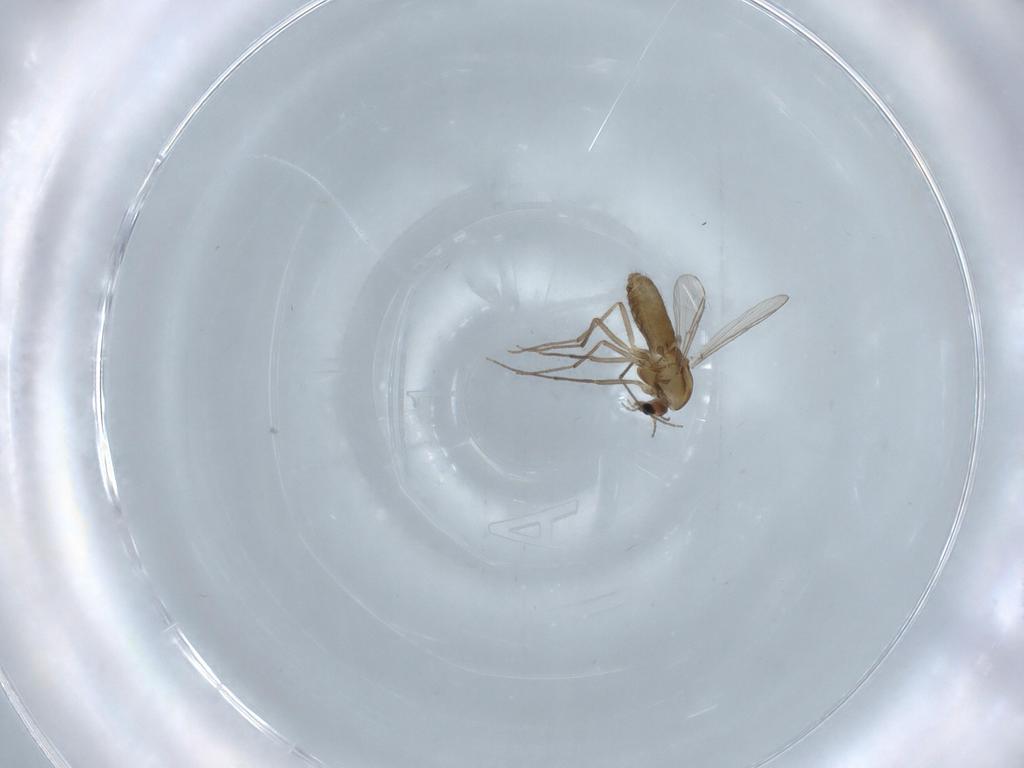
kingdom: Animalia
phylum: Arthropoda
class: Insecta
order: Diptera
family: Chironomidae
